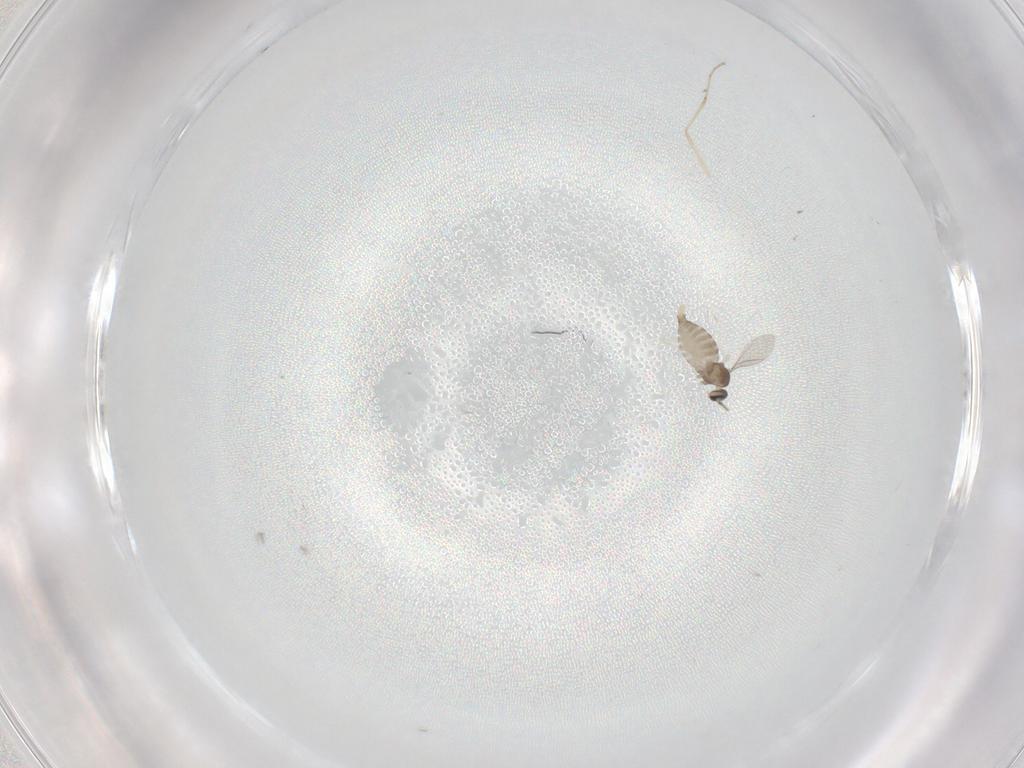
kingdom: Animalia
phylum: Arthropoda
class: Insecta
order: Diptera
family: Cecidomyiidae
